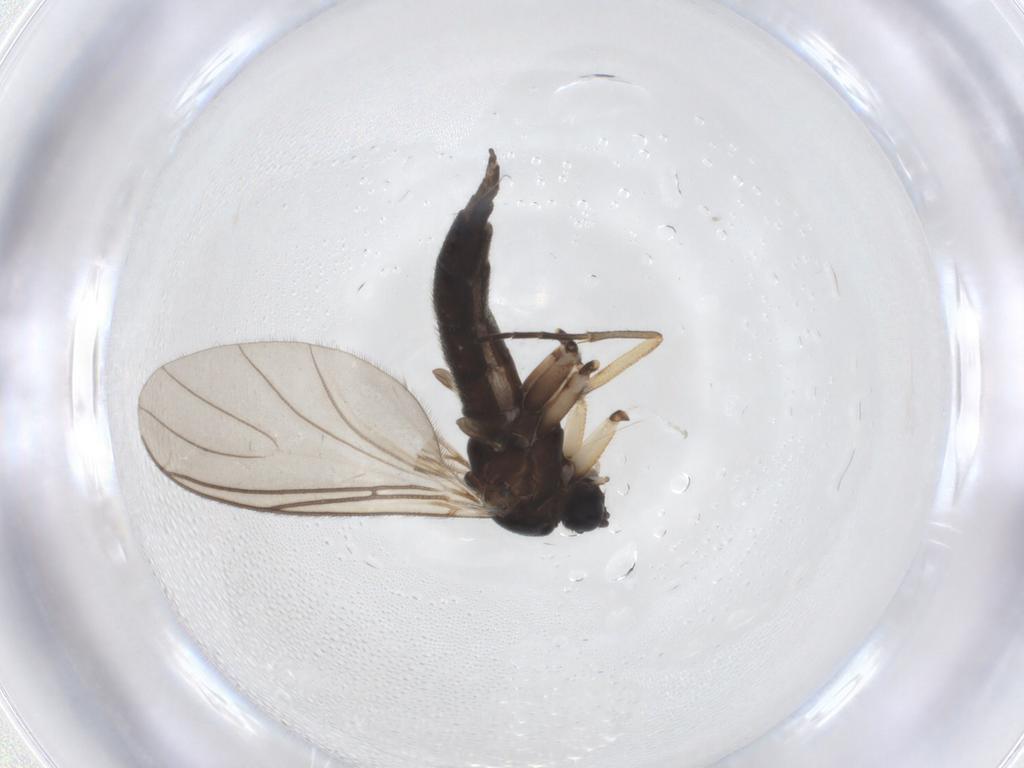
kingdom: Animalia
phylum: Arthropoda
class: Insecta
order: Diptera
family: Sciaridae
